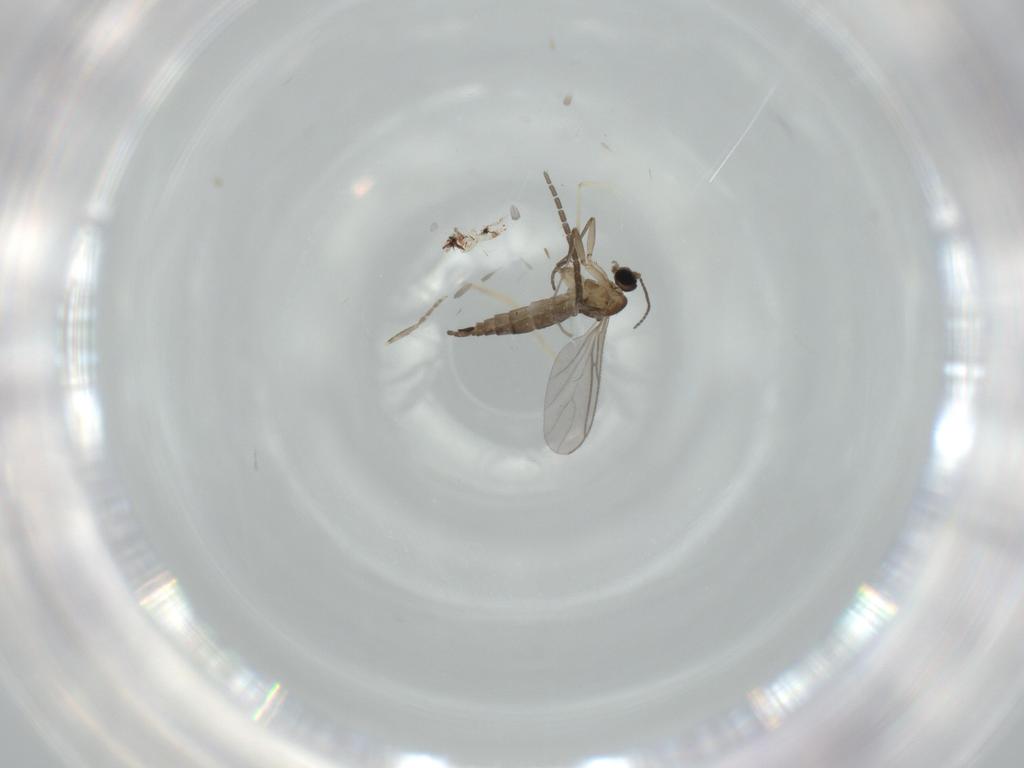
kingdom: Animalia
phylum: Arthropoda
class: Insecta
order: Diptera
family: Sciaridae
